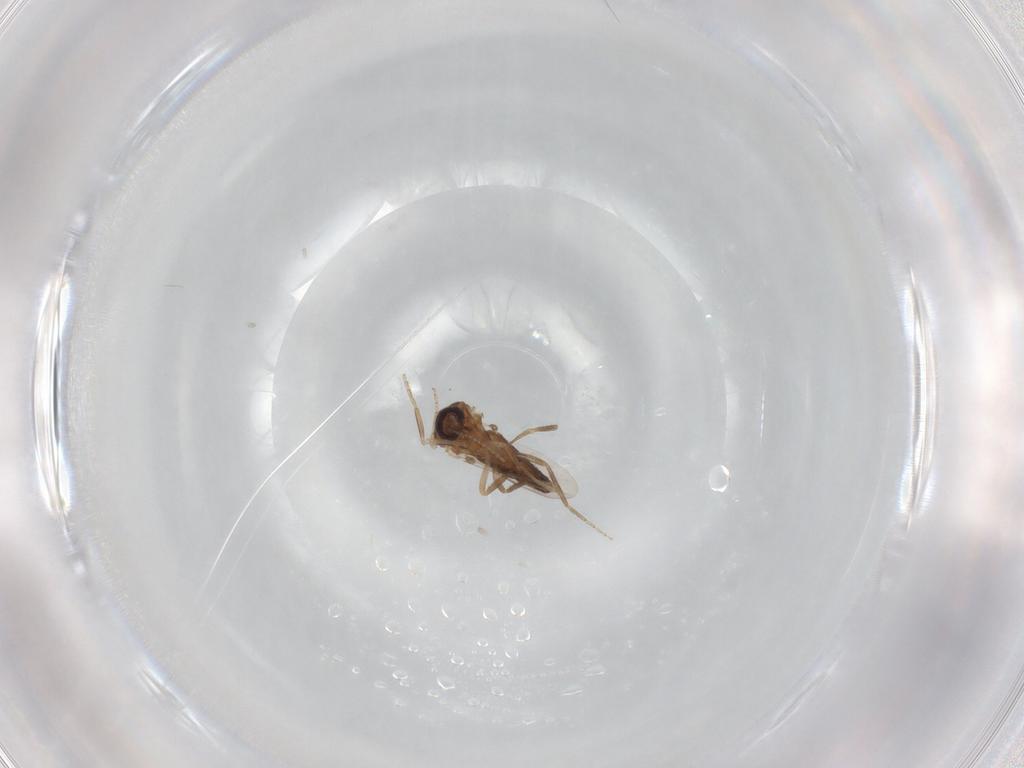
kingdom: Animalia
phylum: Arthropoda
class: Insecta
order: Diptera
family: Ceratopogonidae
